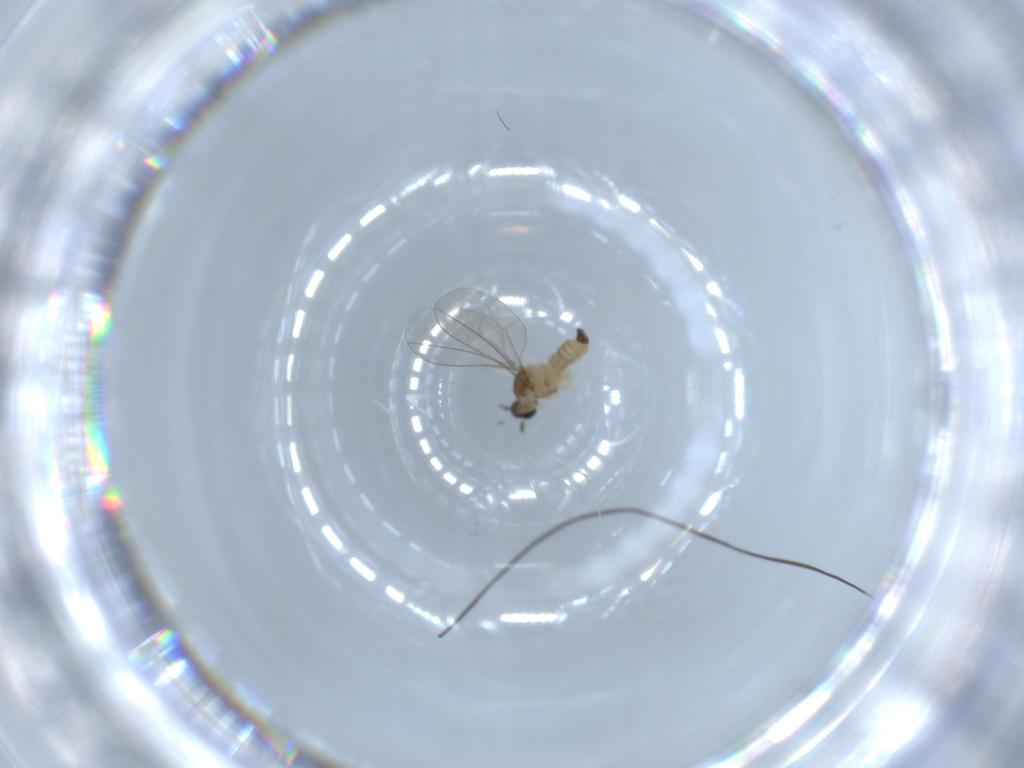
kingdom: Animalia
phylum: Arthropoda
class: Insecta
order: Diptera
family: Cecidomyiidae
